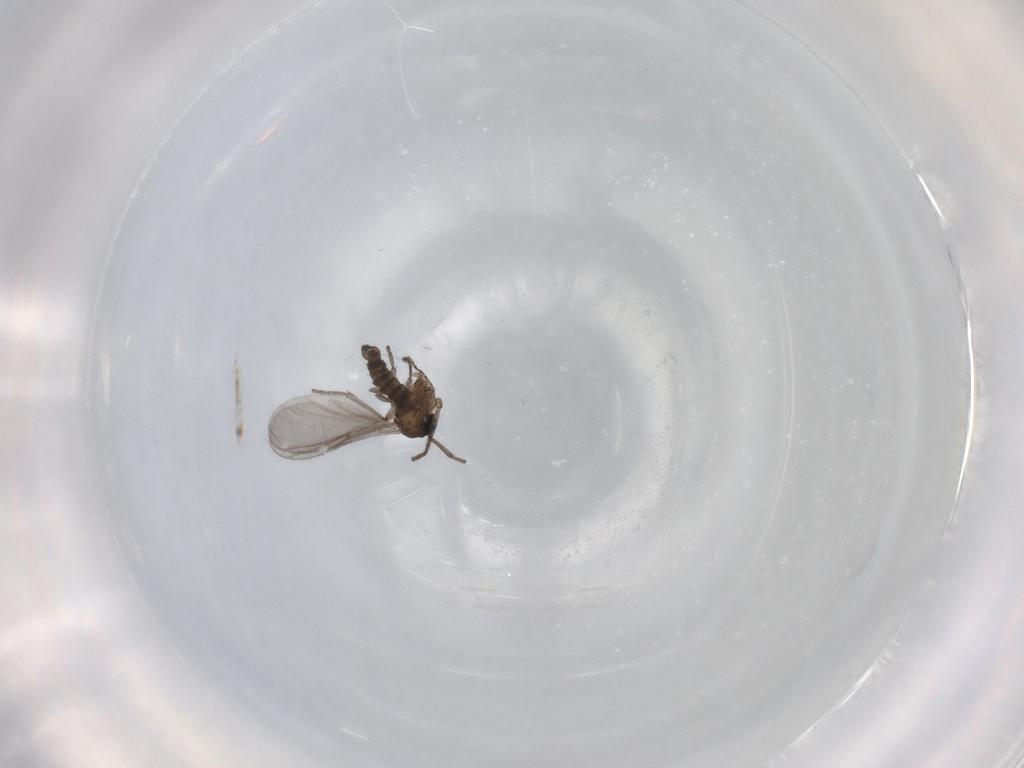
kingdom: Animalia
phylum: Arthropoda
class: Insecta
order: Diptera
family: Sciaridae
